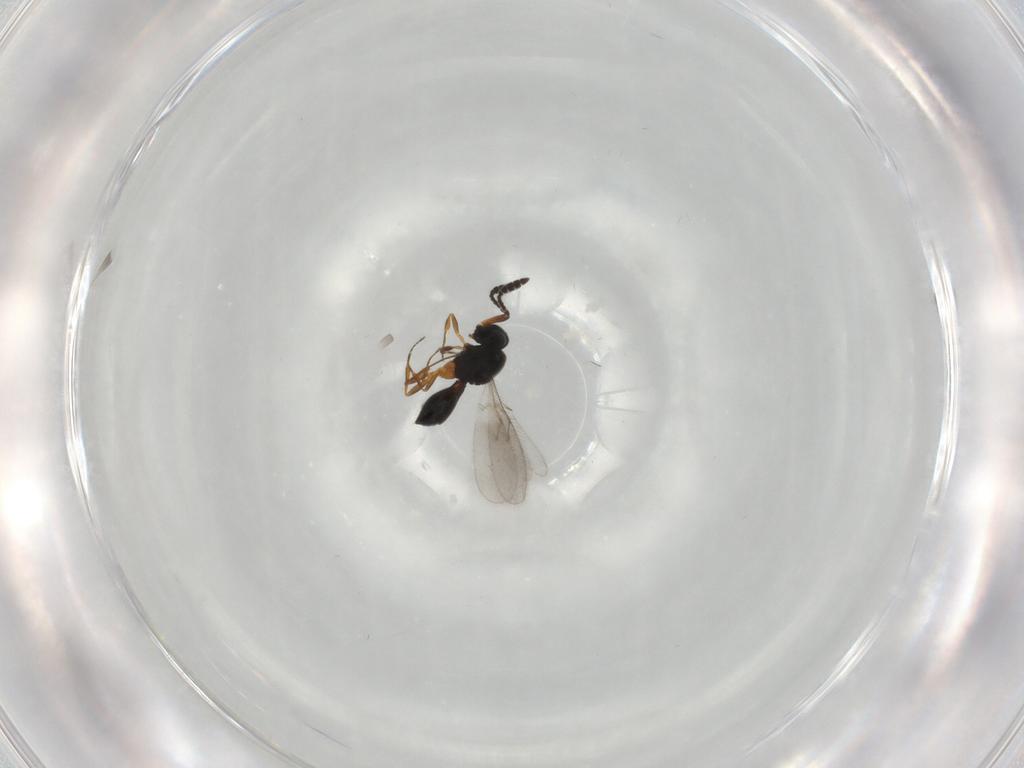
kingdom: Animalia
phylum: Arthropoda
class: Insecta
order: Hymenoptera
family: Scelionidae
